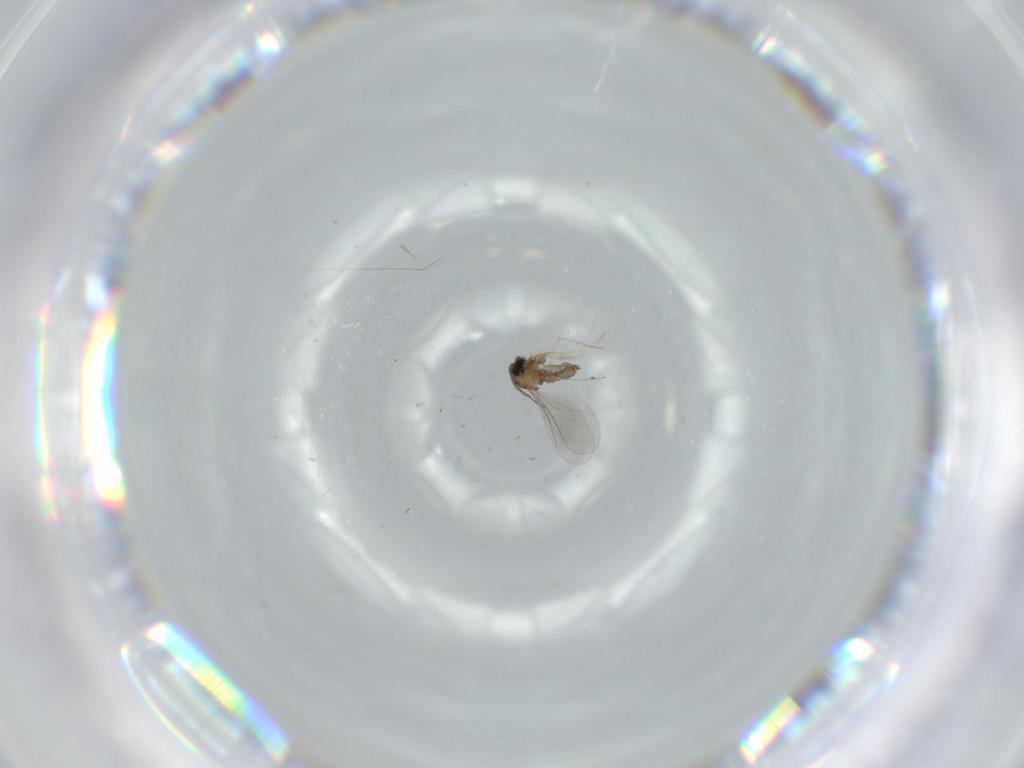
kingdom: Animalia
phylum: Arthropoda
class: Insecta
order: Diptera
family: Cecidomyiidae
